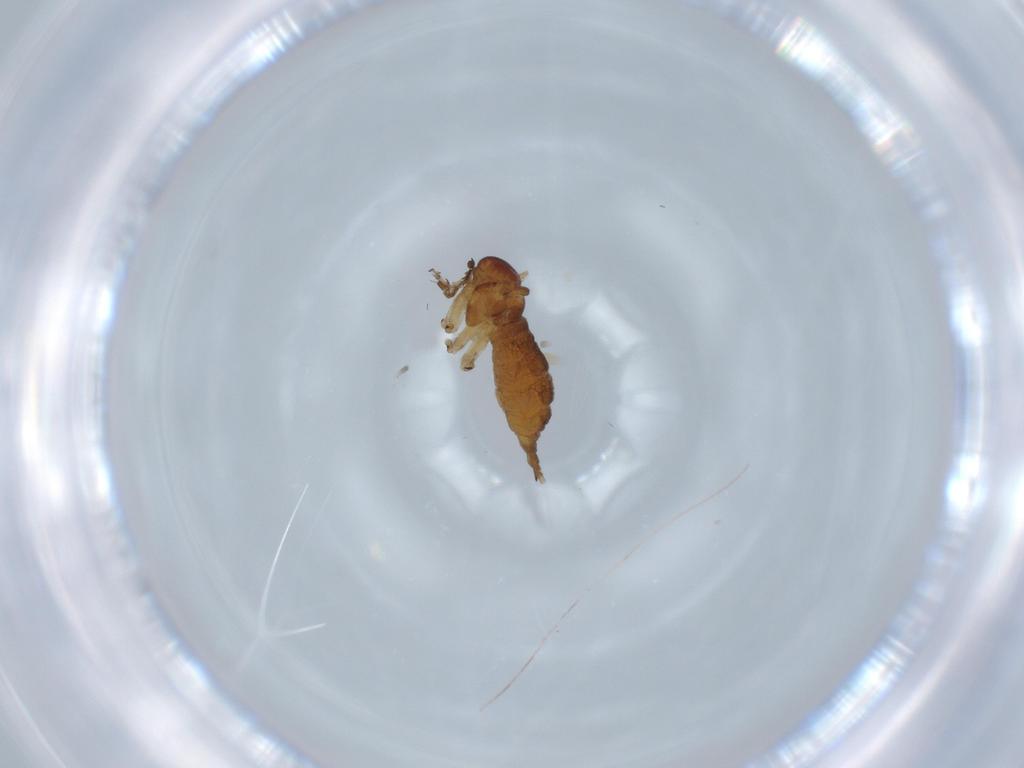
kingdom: Animalia
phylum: Arthropoda
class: Insecta
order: Diptera
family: Sciaridae
